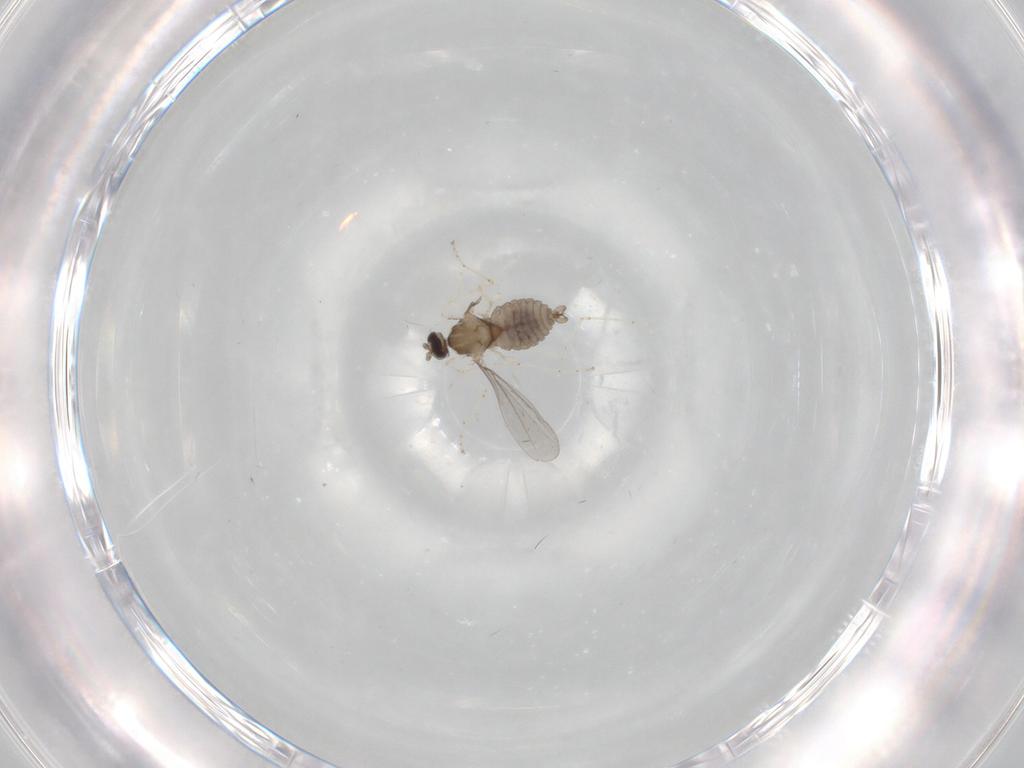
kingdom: Animalia
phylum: Arthropoda
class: Insecta
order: Diptera
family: Cecidomyiidae
